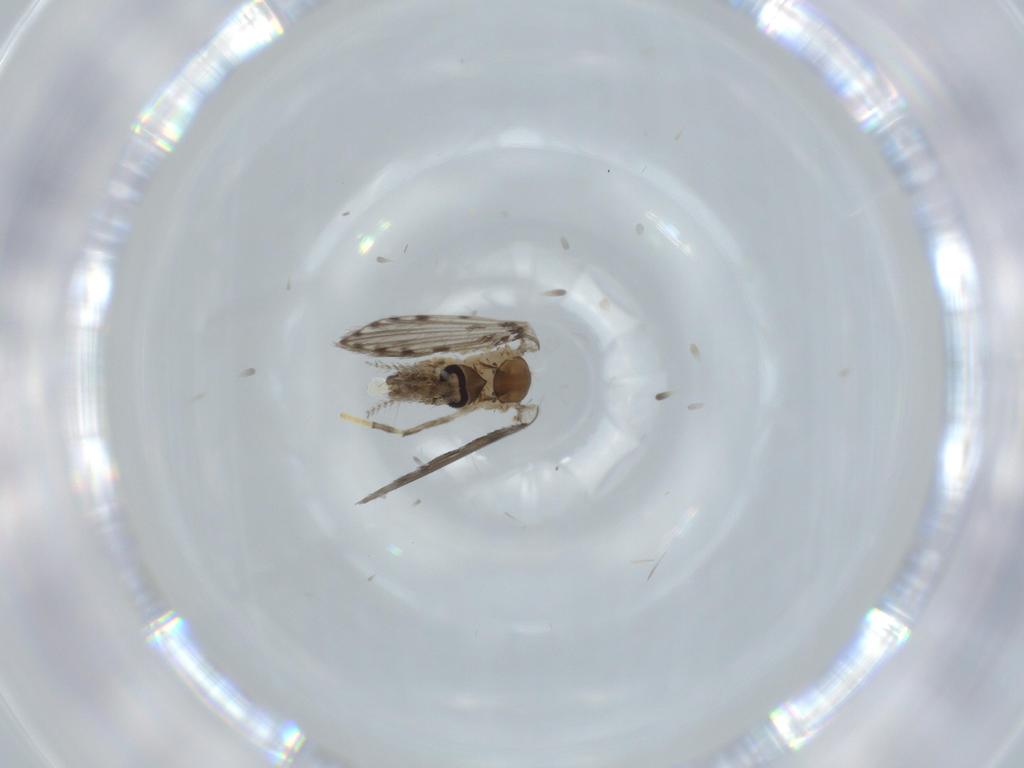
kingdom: Animalia
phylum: Arthropoda
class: Insecta
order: Diptera
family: Psychodidae
